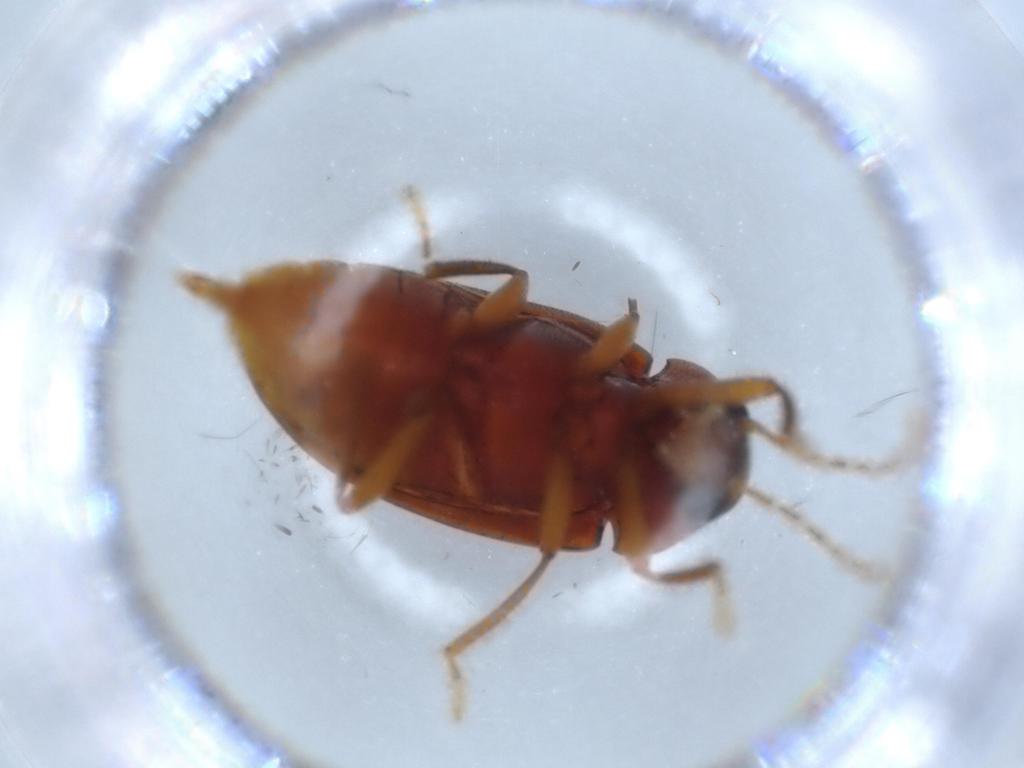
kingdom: Animalia
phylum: Arthropoda
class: Insecta
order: Coleoptera
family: Ptilodactylidae
